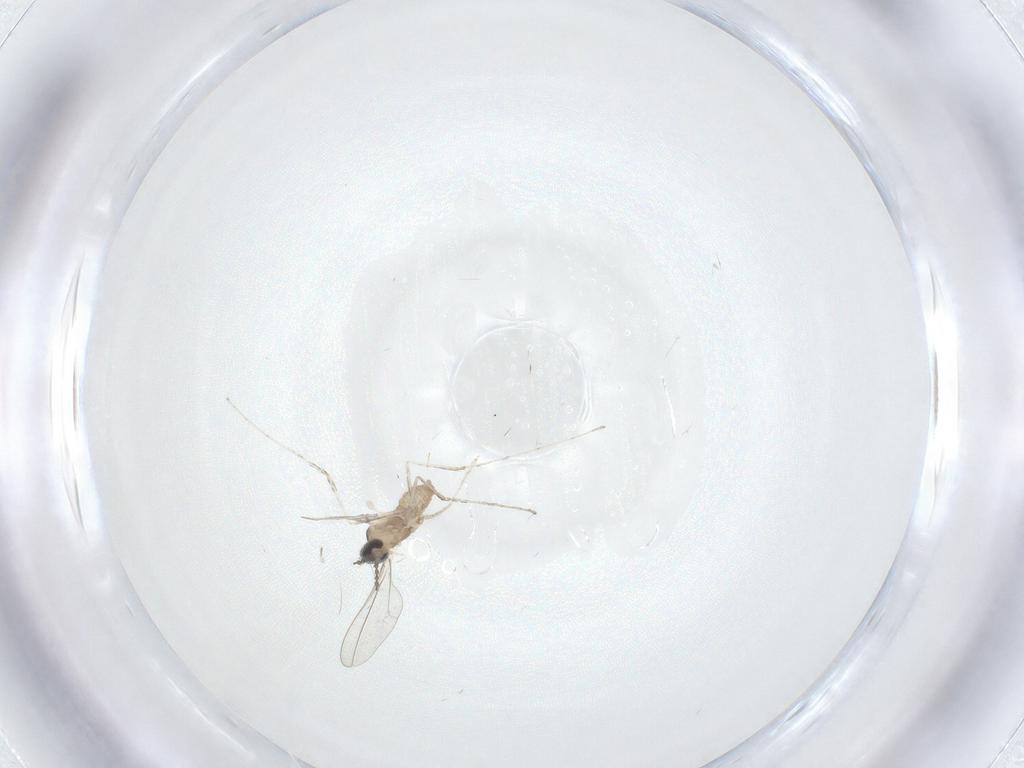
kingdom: Animalia
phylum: Arthropoda
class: Insecta
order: Diptera
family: Cecidomyiidae
